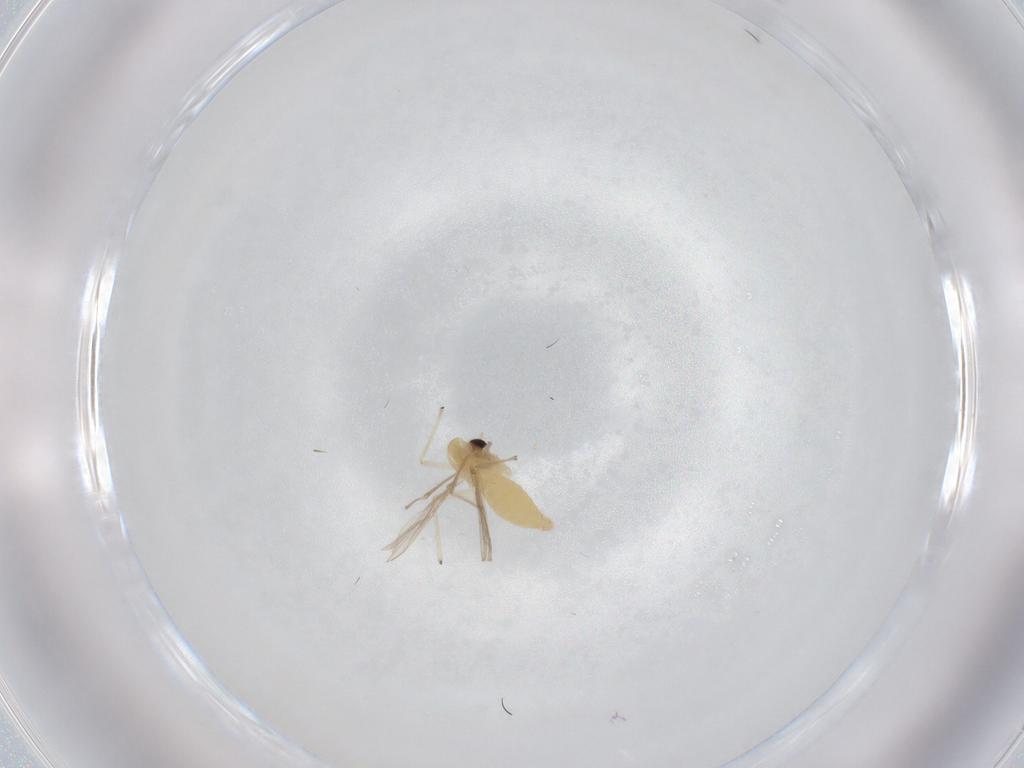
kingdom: Animalia
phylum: Arthropoda
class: Insecta
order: Diptera
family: Chironomidae
